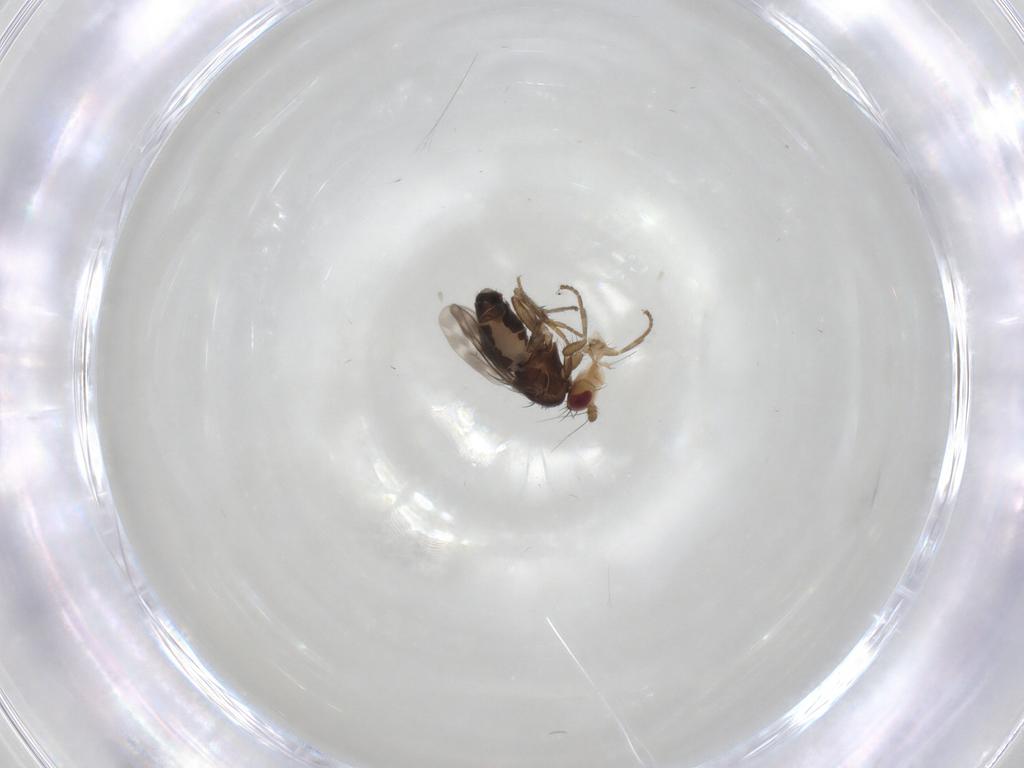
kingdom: Animalia
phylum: Arthropoda
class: Insecta
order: Diptera
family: Sphaeroceridae
